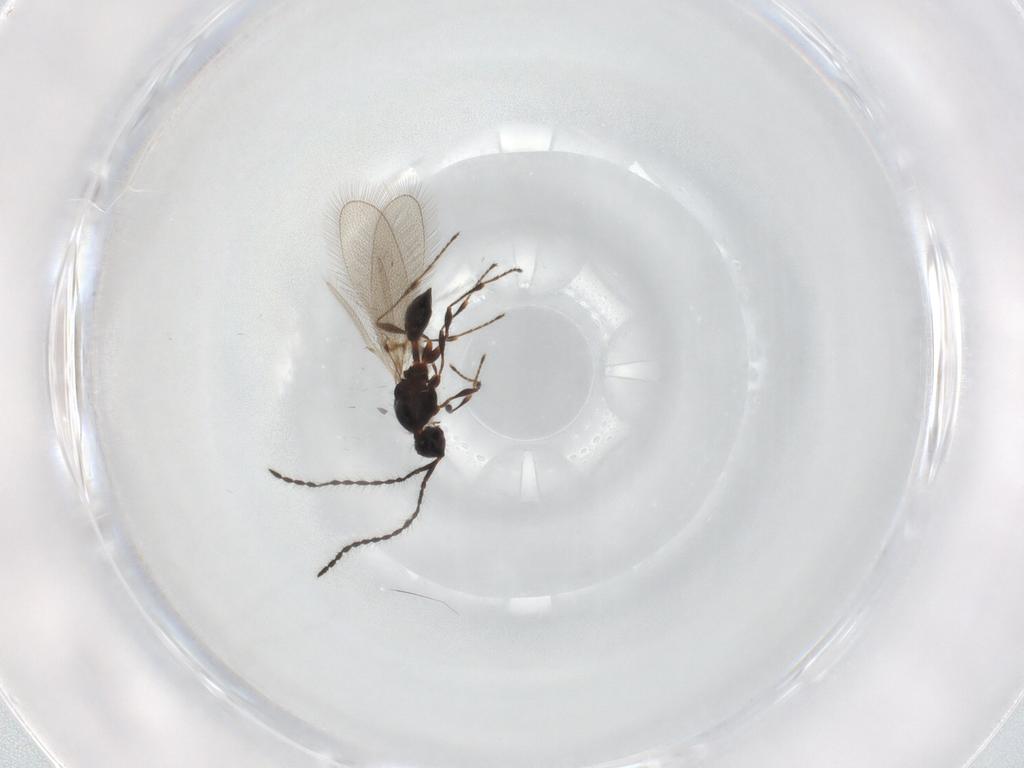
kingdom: Animalia
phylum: Arthropoda
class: Insecta
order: Hymenoptera
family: Diapriidae
